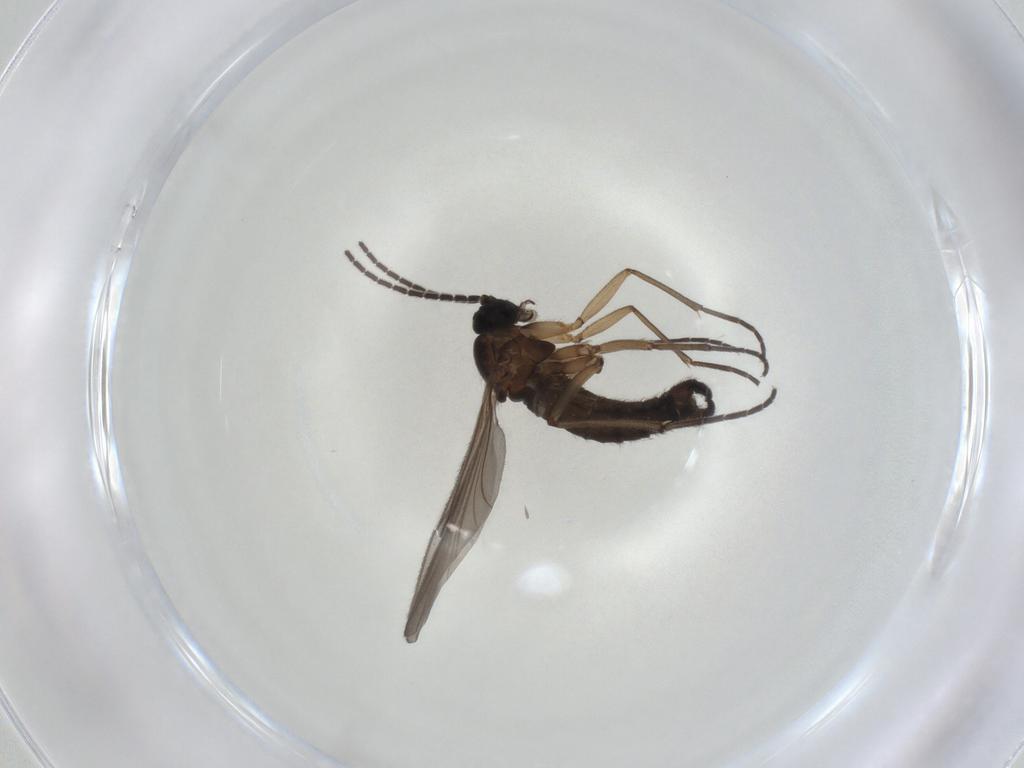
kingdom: Animalia
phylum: Arthropoda
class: Insecta
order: Diptera
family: Sciaridae
